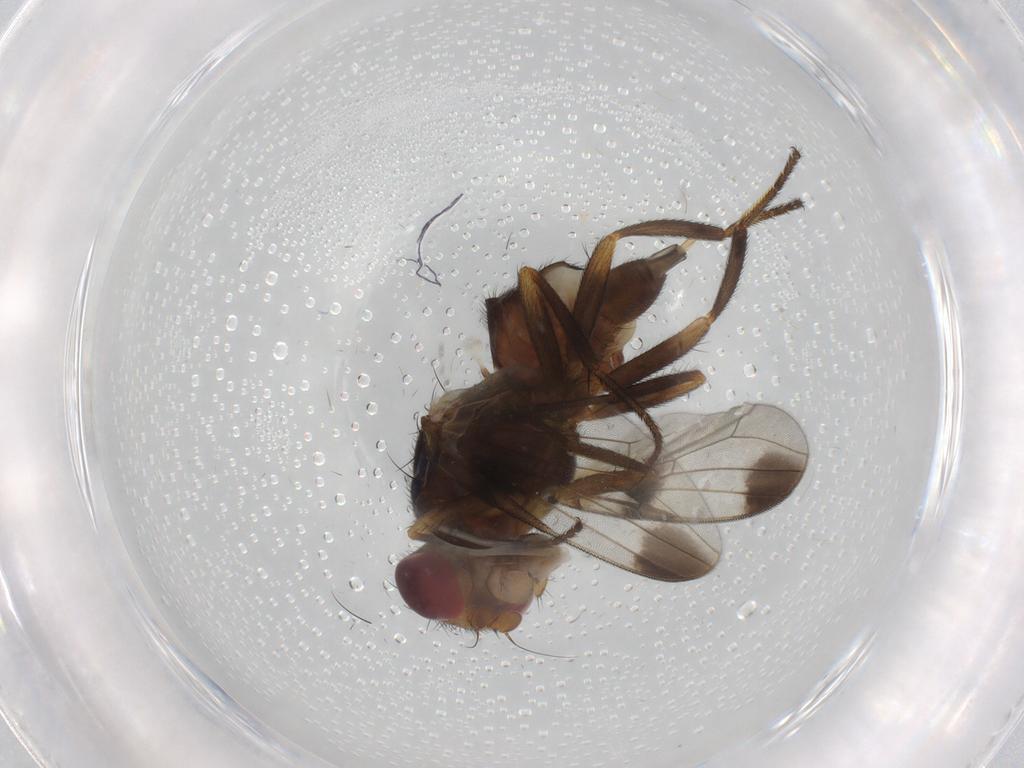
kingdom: Animalia
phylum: Arthropoda
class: Insecta
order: Diptera
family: Ulidiidae
